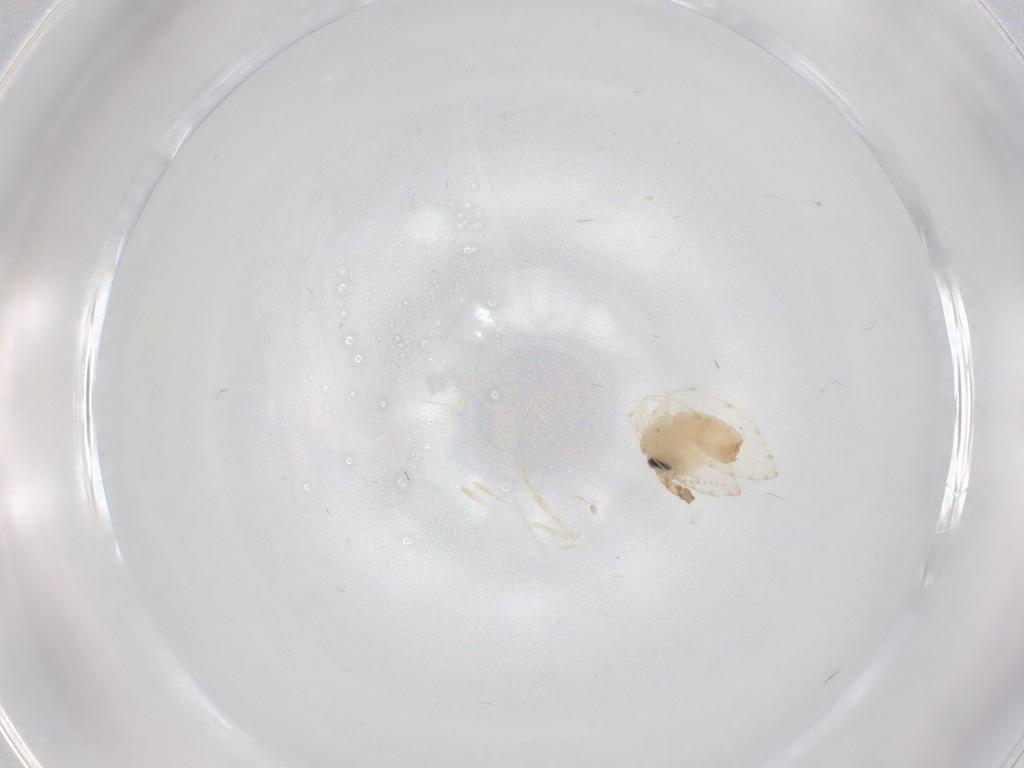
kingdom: Animalia
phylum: Arthropoda
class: Insecta
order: Diptera
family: Psychodidae
